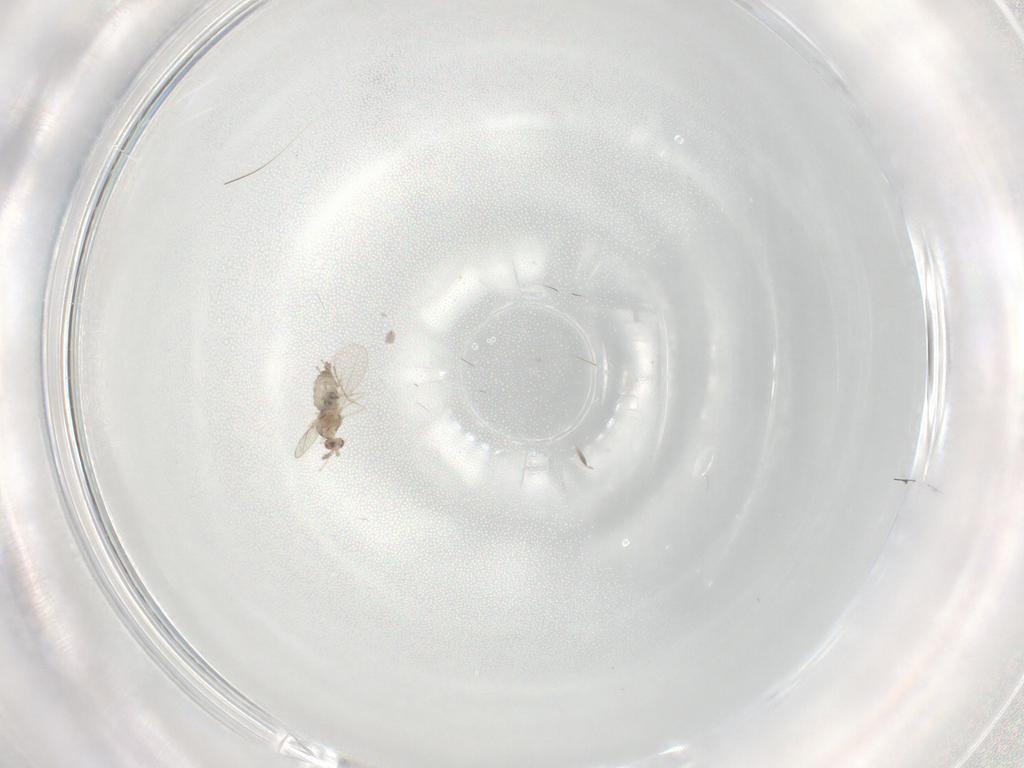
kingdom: Animalia
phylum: Arthropoda
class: Insecta
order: Diptera
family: Cecidomyiidae
